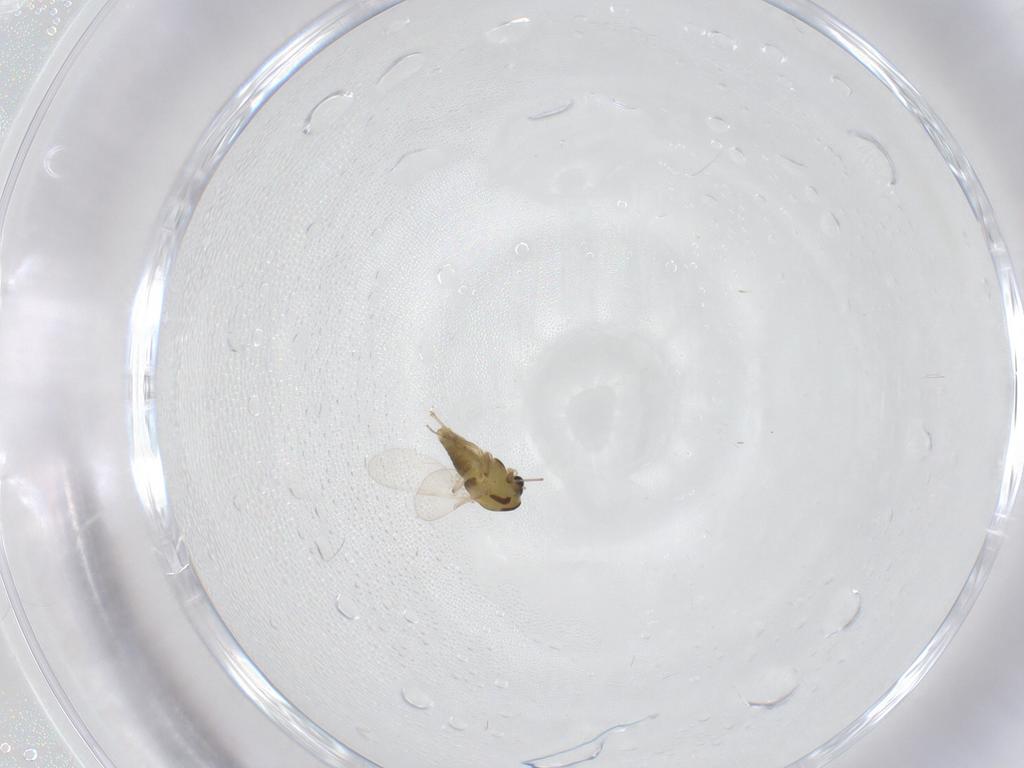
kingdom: Animalia
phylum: Arthropoda
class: Insecta
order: Diptera
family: Chironomidae
